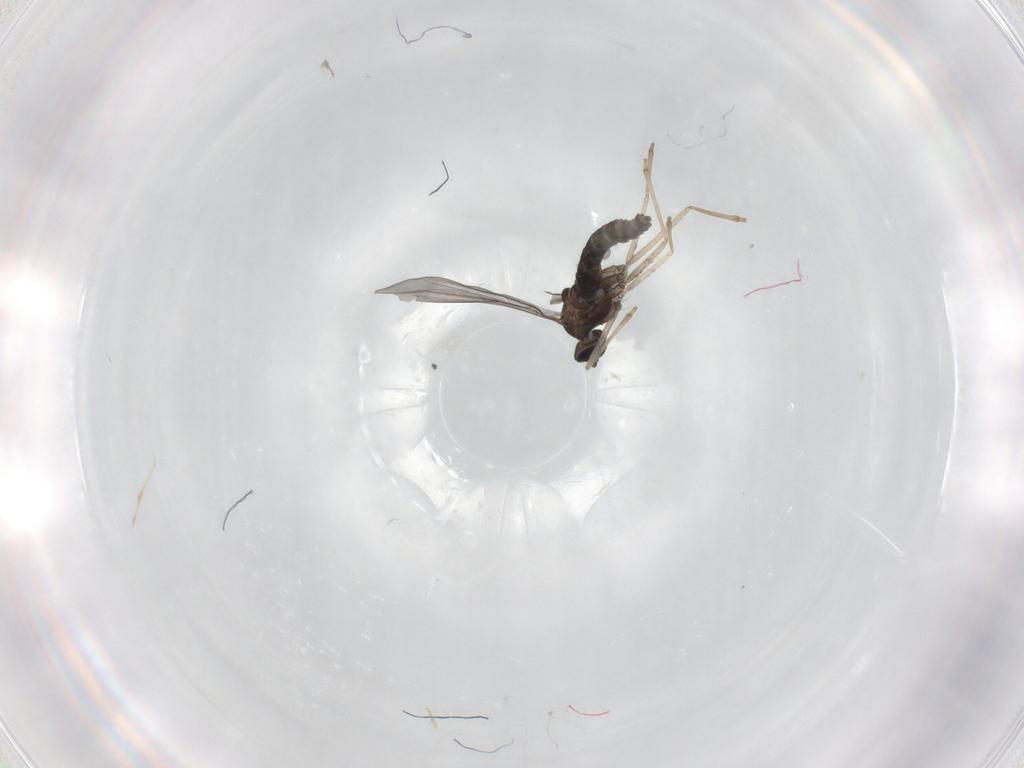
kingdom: Animalia
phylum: Arthropoda
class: Insecta
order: Diptera
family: Cecidomyiidae
